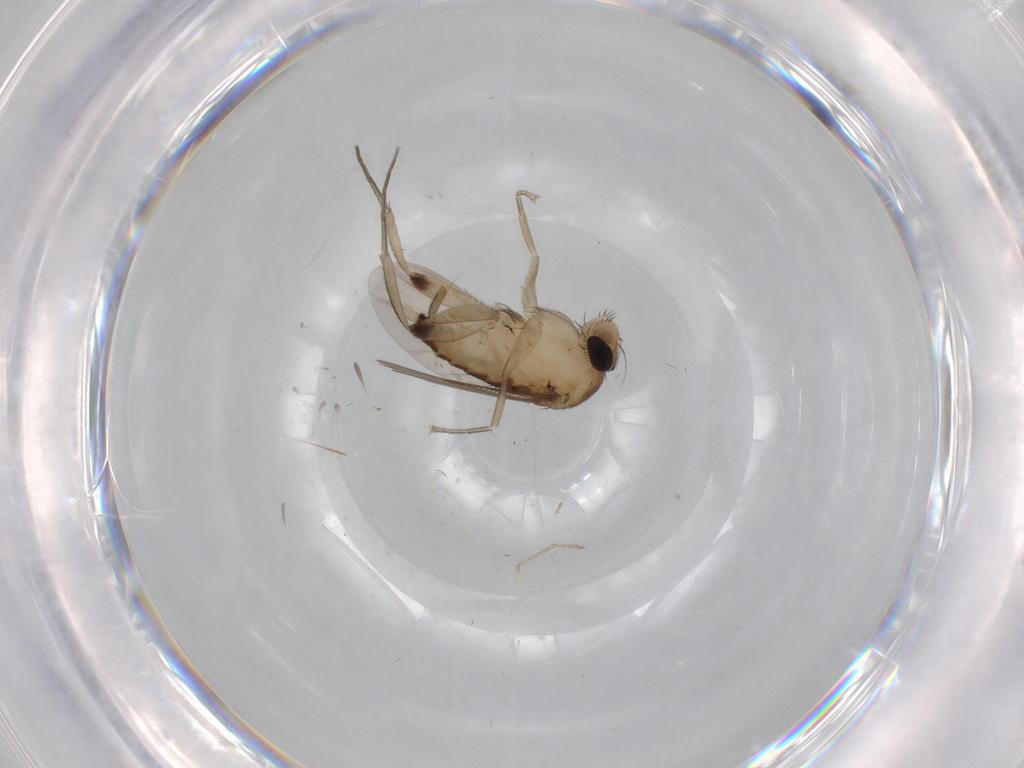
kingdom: Animalia
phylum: Arthropoda
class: Insecta
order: Diptera
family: Phoridae
